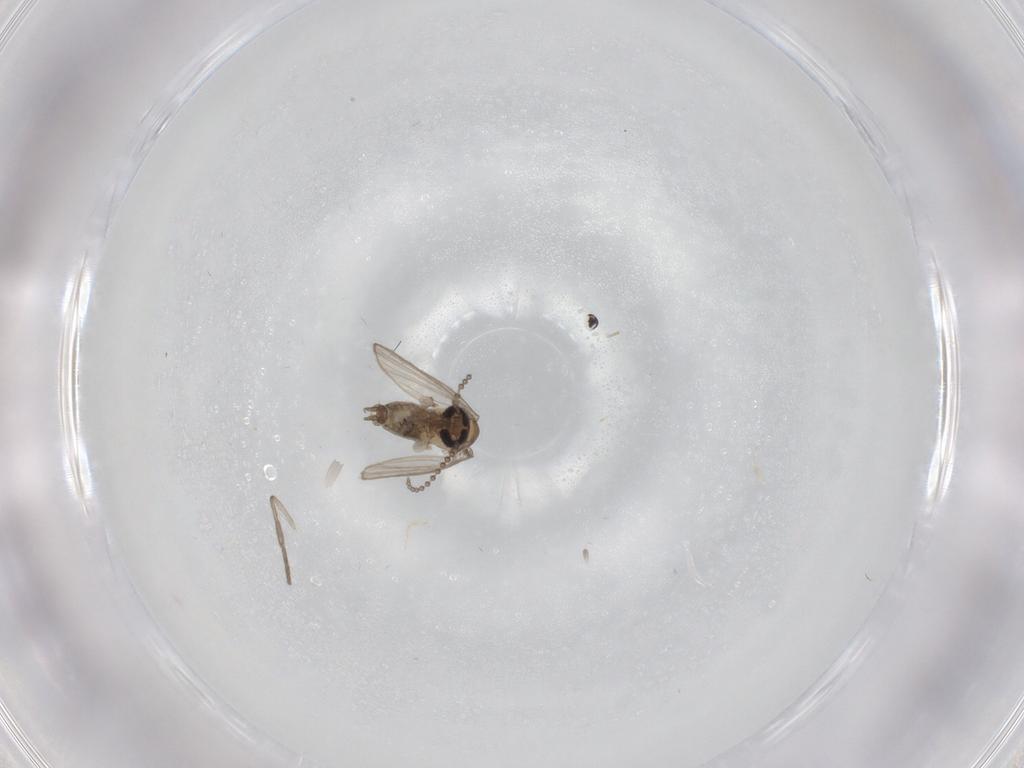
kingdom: Animalia
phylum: Arthropoda
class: Insecta
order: Diptera
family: Psychodidae
